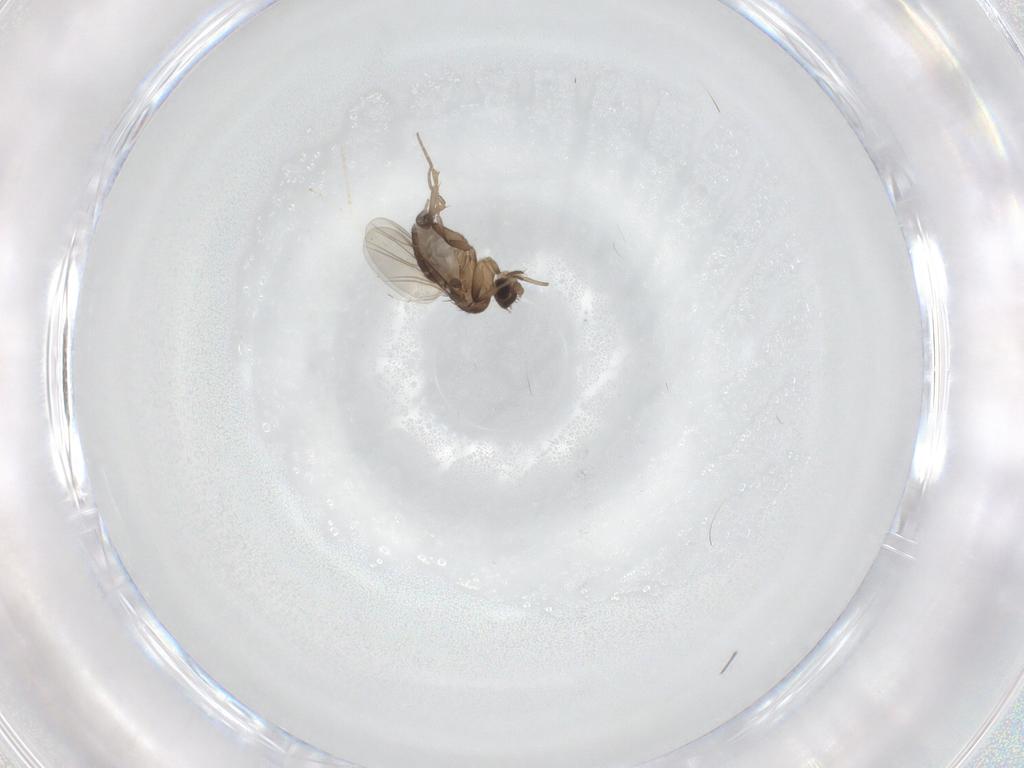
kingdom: Animalia
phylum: Arthropoda
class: Insecta
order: Diptera
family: Cecidomyiidae
